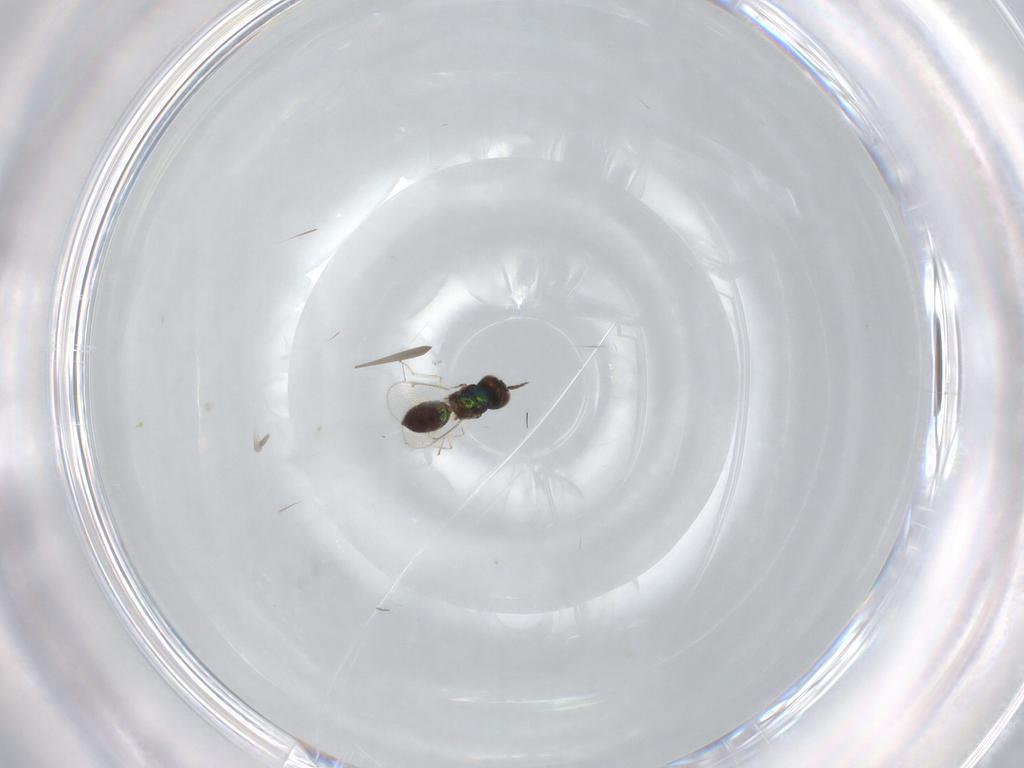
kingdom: Animalia
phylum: Arthropoda
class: Insecta
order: Hymenoptera
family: Eulophidae
